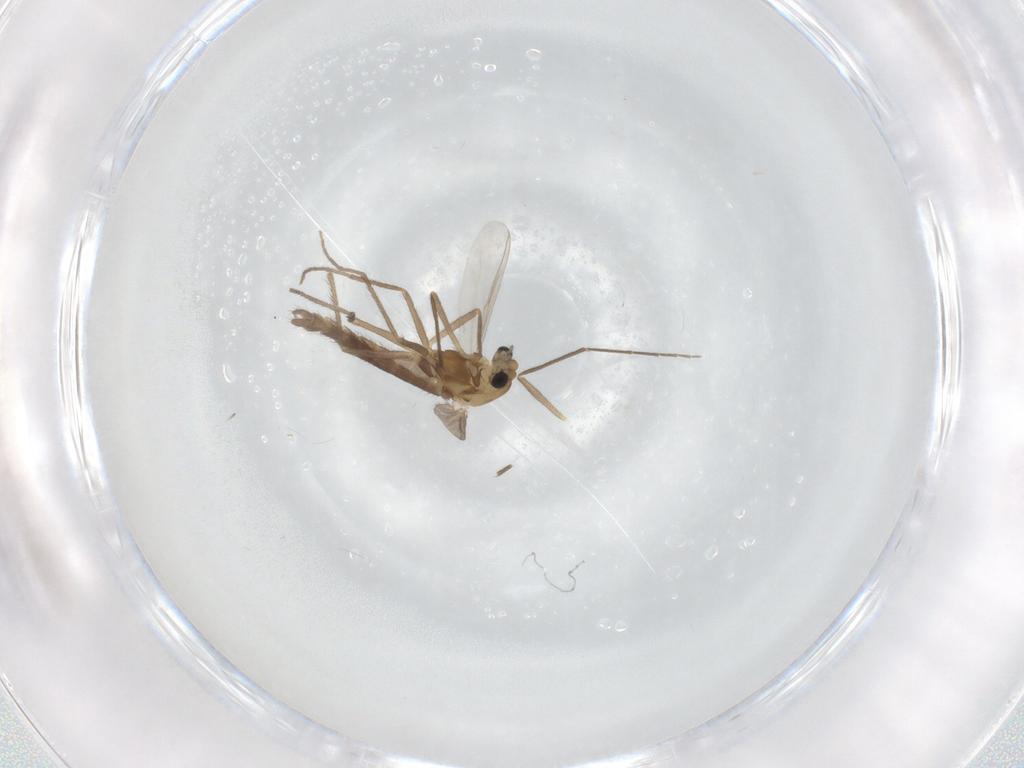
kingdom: Animalia
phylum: Arthropoda
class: Insecta
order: Diptera
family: Chironomidae
